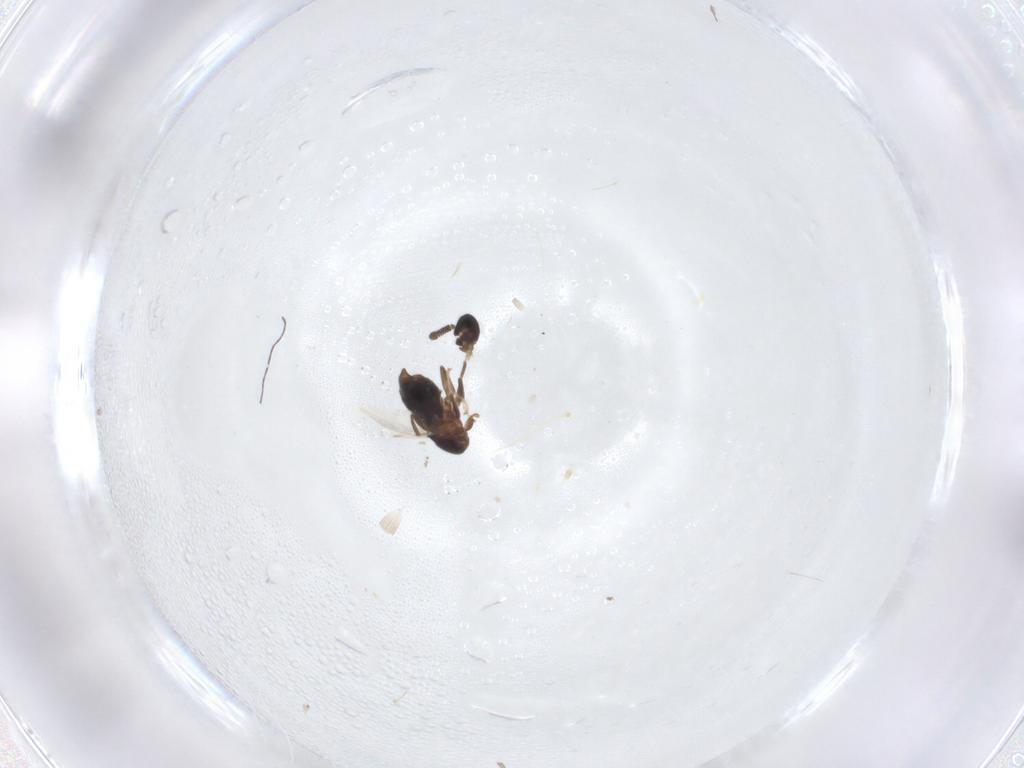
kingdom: Animalia
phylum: Arthropoda
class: Insecta
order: Diptera
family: Scatopsidae
